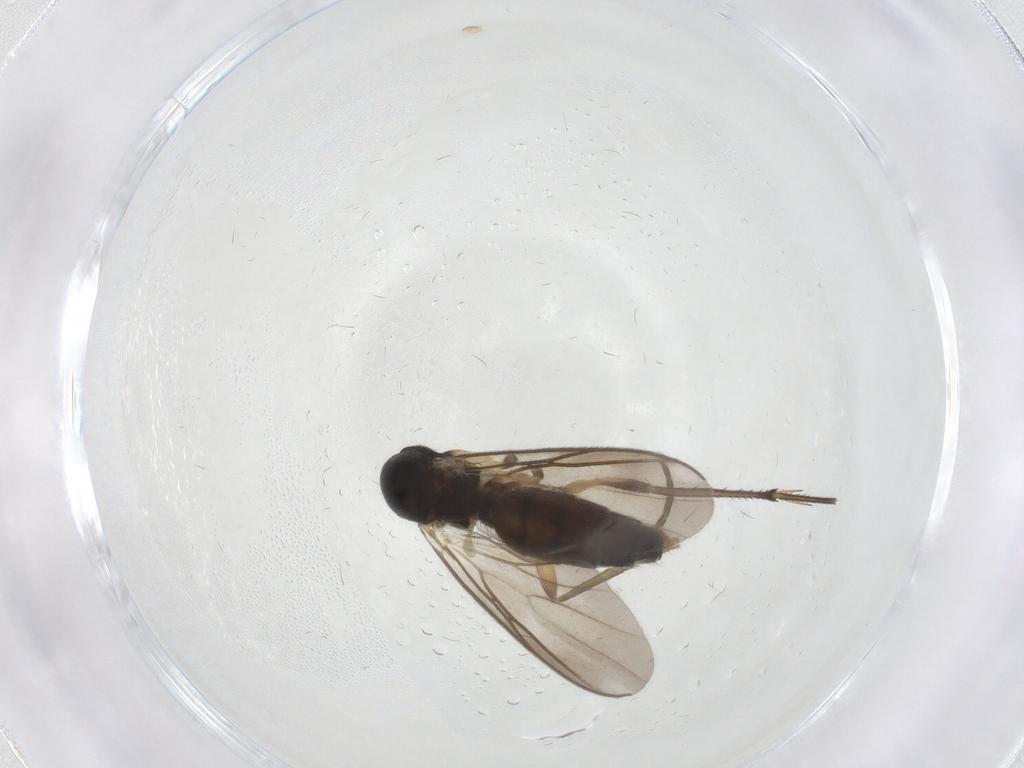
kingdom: Animalia
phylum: Arthropoda
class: Insecta
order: Diptera
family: Mycetophilidae
